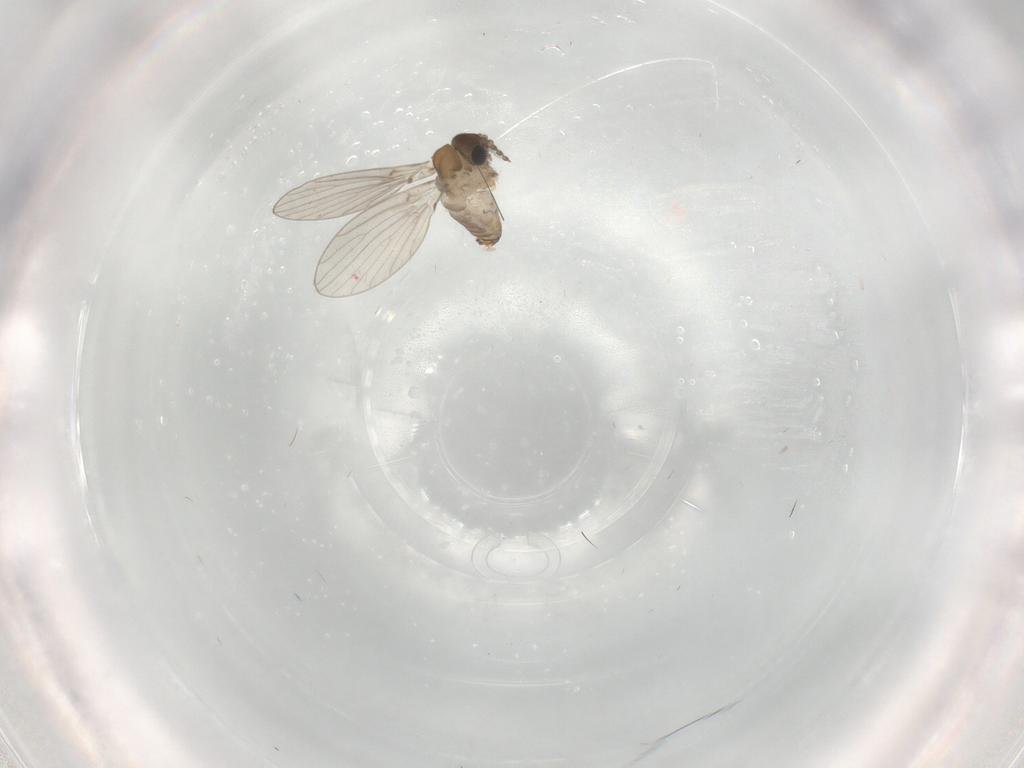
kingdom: Animalia
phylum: Arthropoda
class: Insecta
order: Diptera
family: Psychodidae
